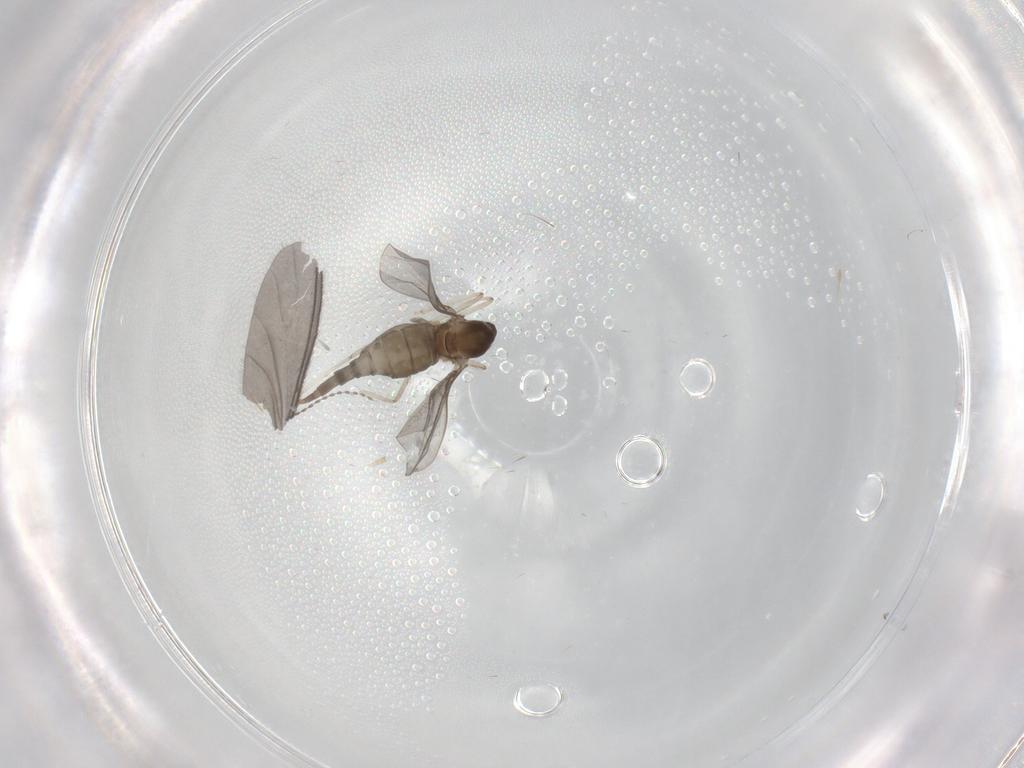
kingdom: Animalia
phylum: Arthropoda
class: Insecta
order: Diptera
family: Cecidomyiidae
